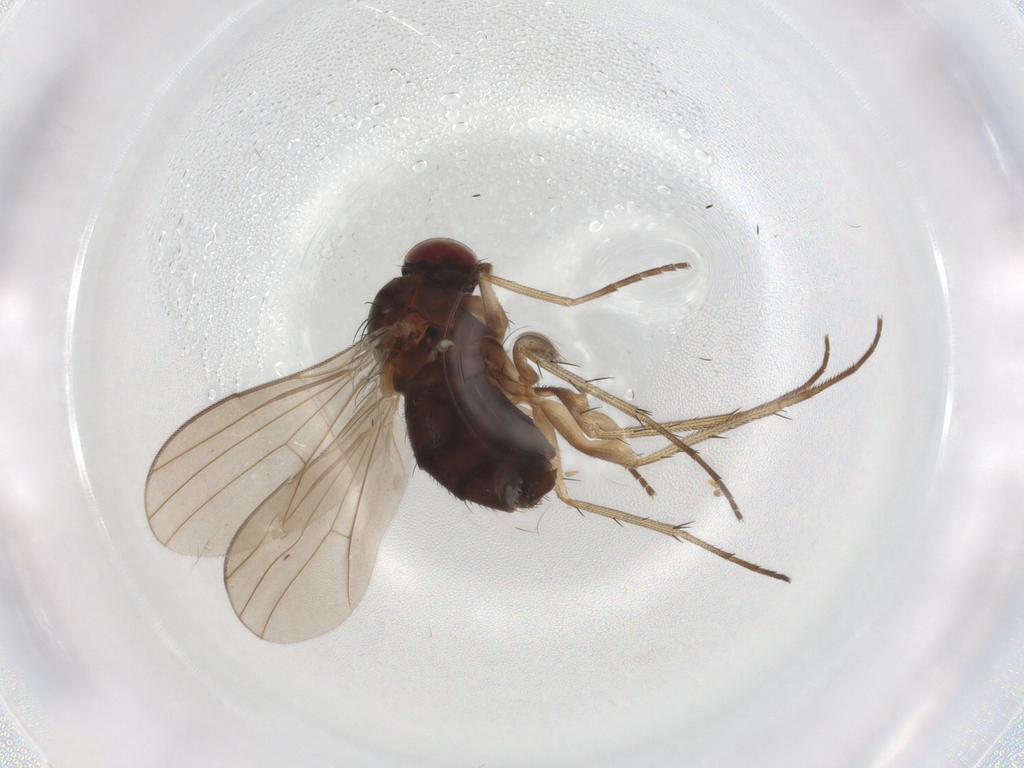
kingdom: Animalia
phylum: Arthropoda
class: Insecta
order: Diptera
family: Dolichopodidae
